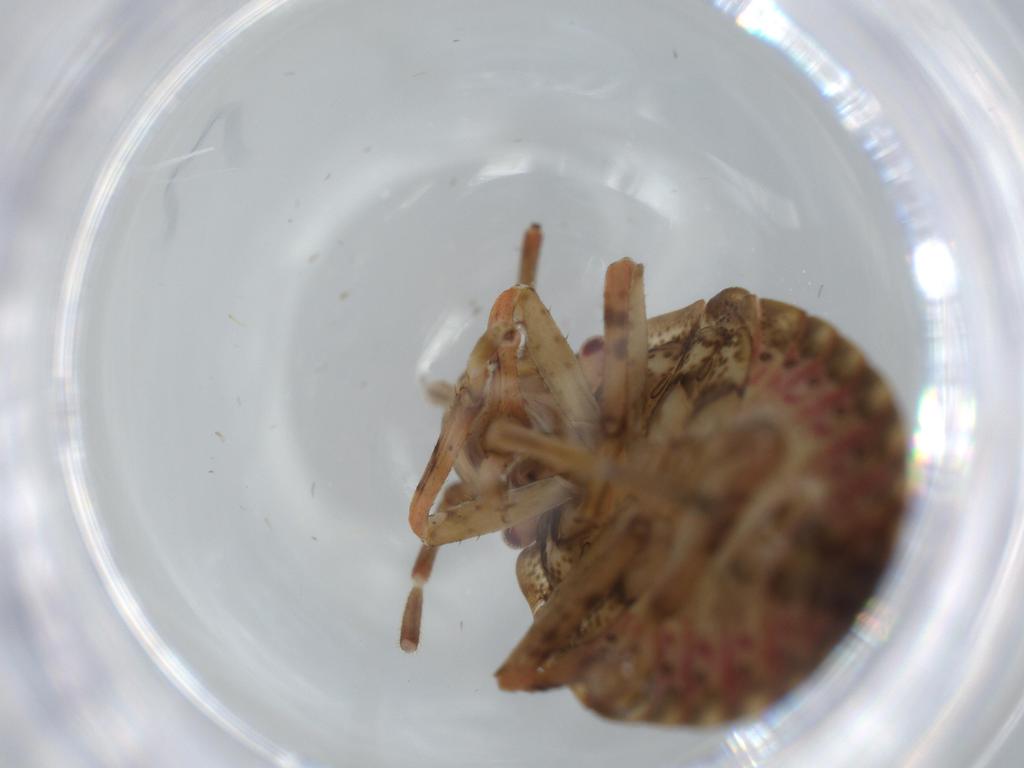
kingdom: Animalia
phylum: Arthropoda
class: Insecta
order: Hemiptera
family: Pentatomidae
